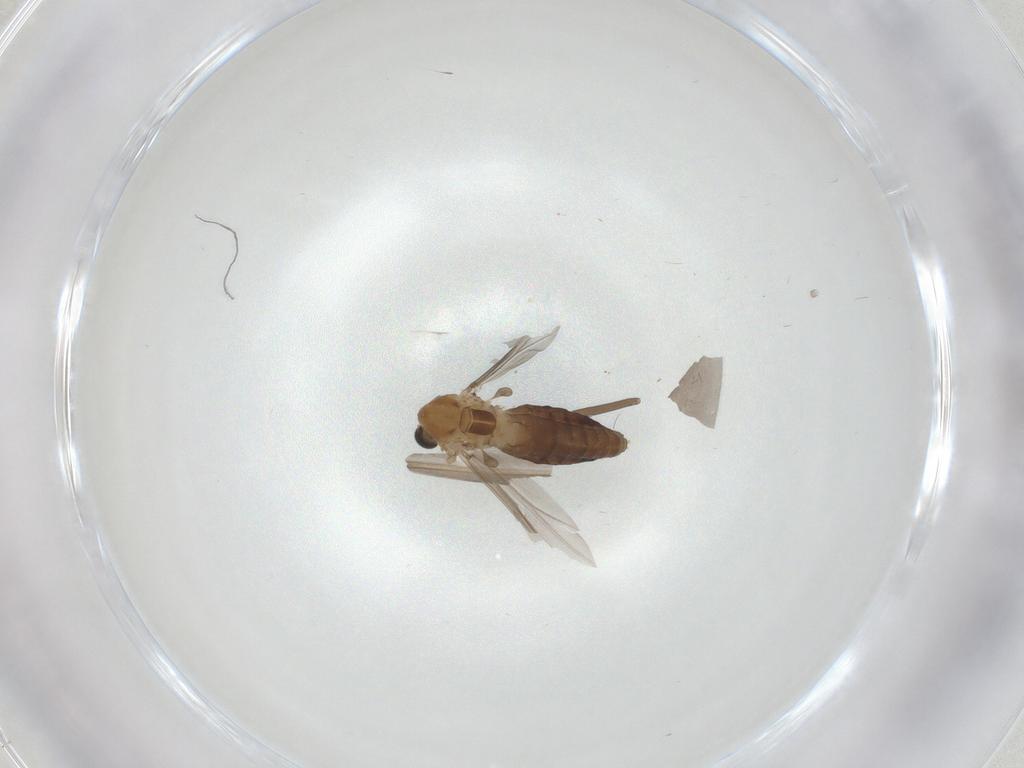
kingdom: Animalia
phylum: Arthropoda
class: Insecta
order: Diptera
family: Chironomidae
